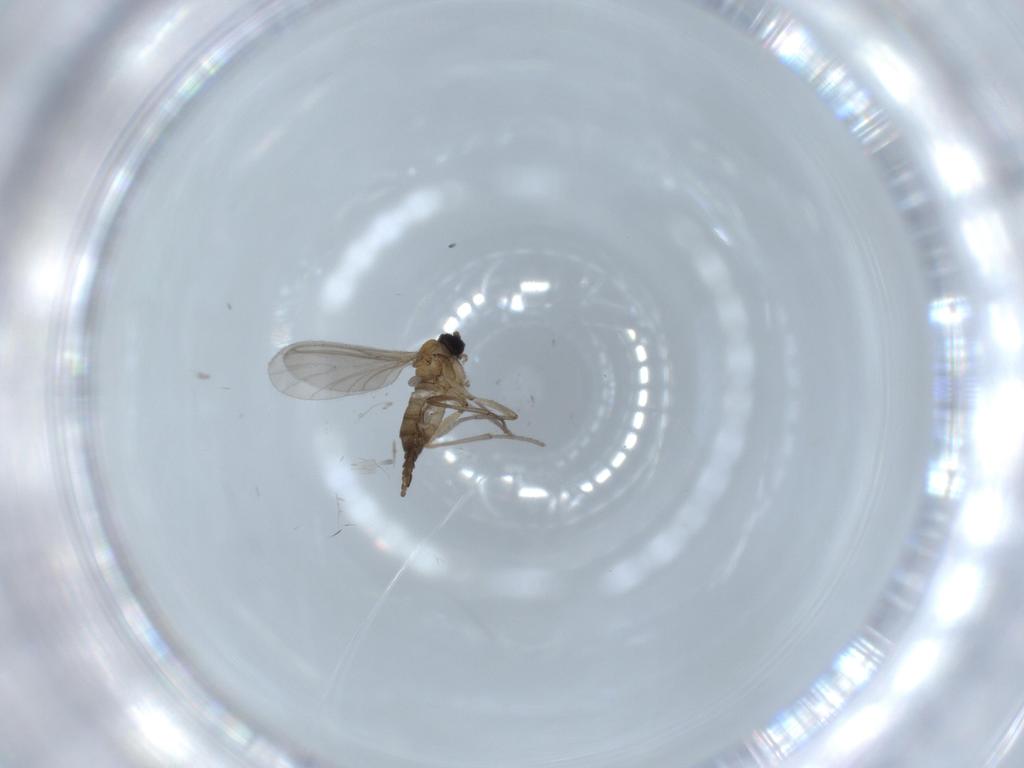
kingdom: Animalia
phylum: Arthropoda
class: Insecta
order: Diptera
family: Sciaridae
